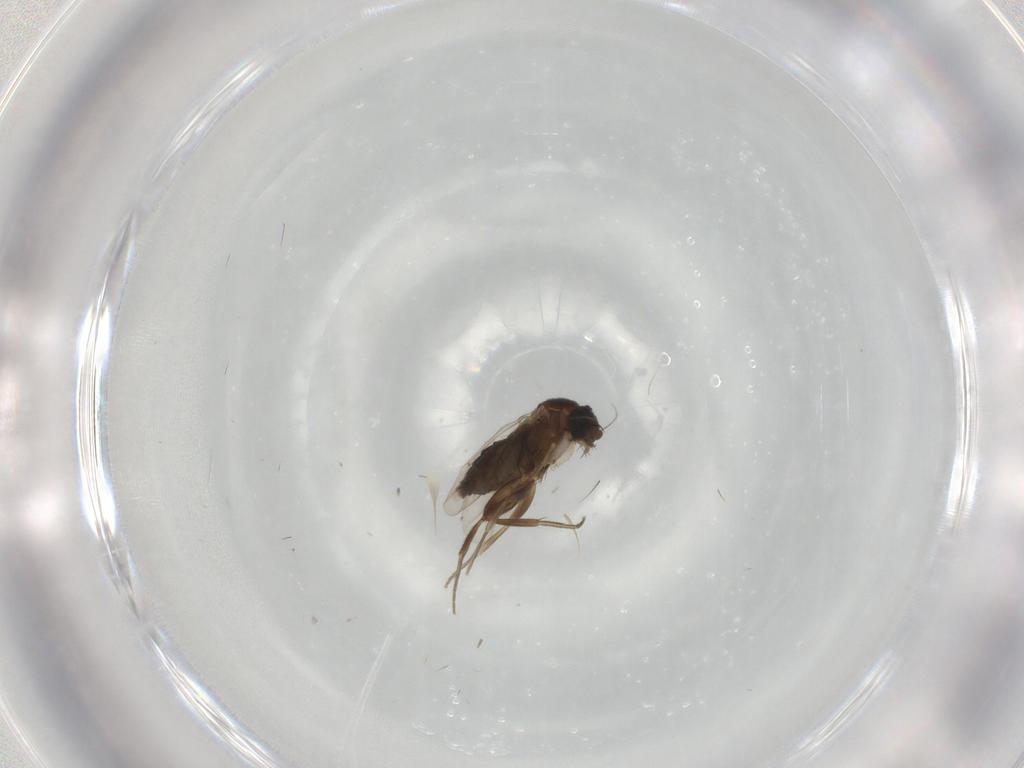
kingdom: Animalia
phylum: Arthropoda
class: Insecta
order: Diptera
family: Phoridae
